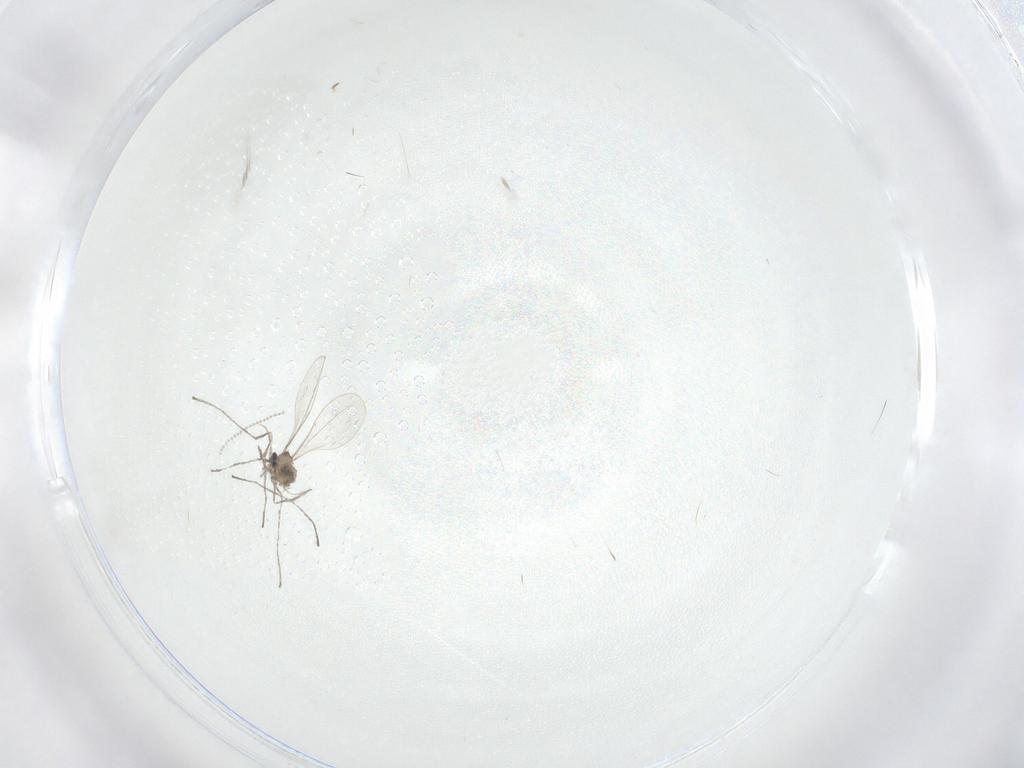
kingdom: Animalia
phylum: Arthropoda
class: Insecta
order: Diptera
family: Cecidomyiidae
